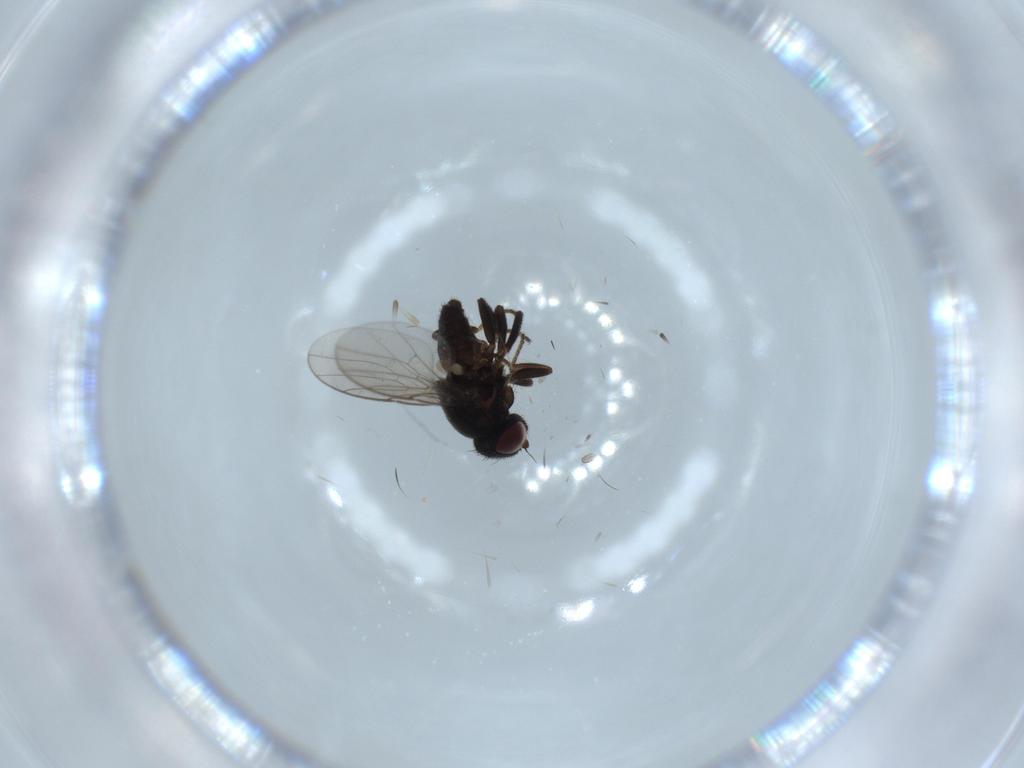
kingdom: Animalia
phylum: Arthropoda
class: Insecta
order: Diptera
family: Chloropidae
